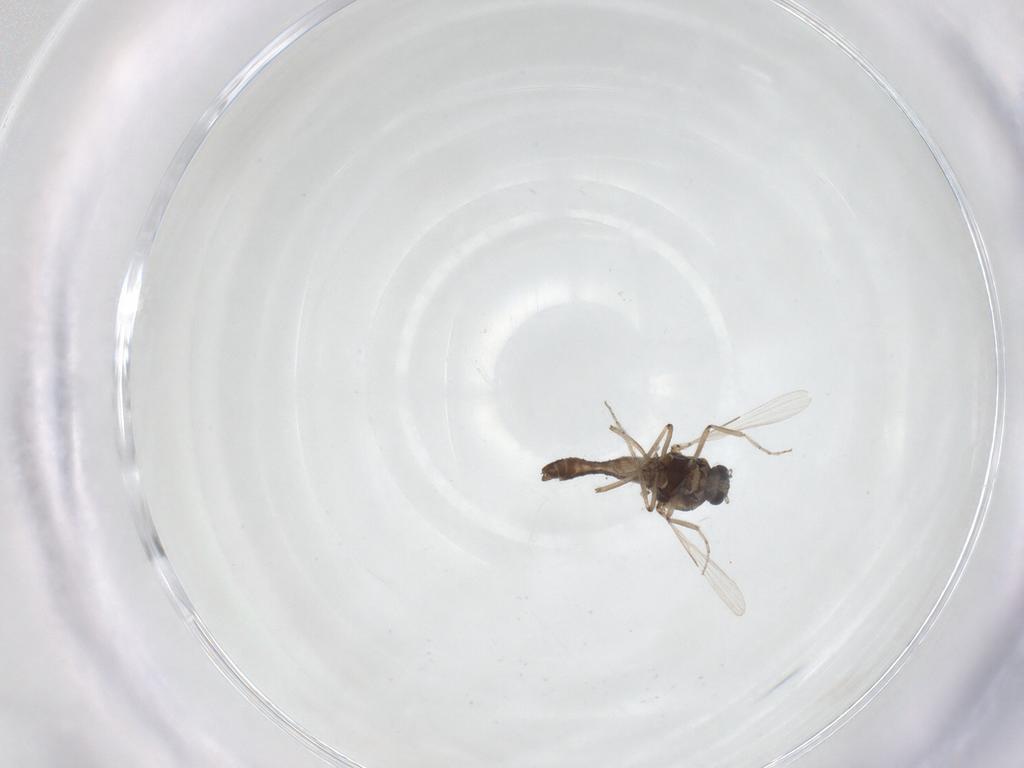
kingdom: Animalia
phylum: Arthropoda
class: Insecta
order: Diptera
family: Ceratopogonidae
